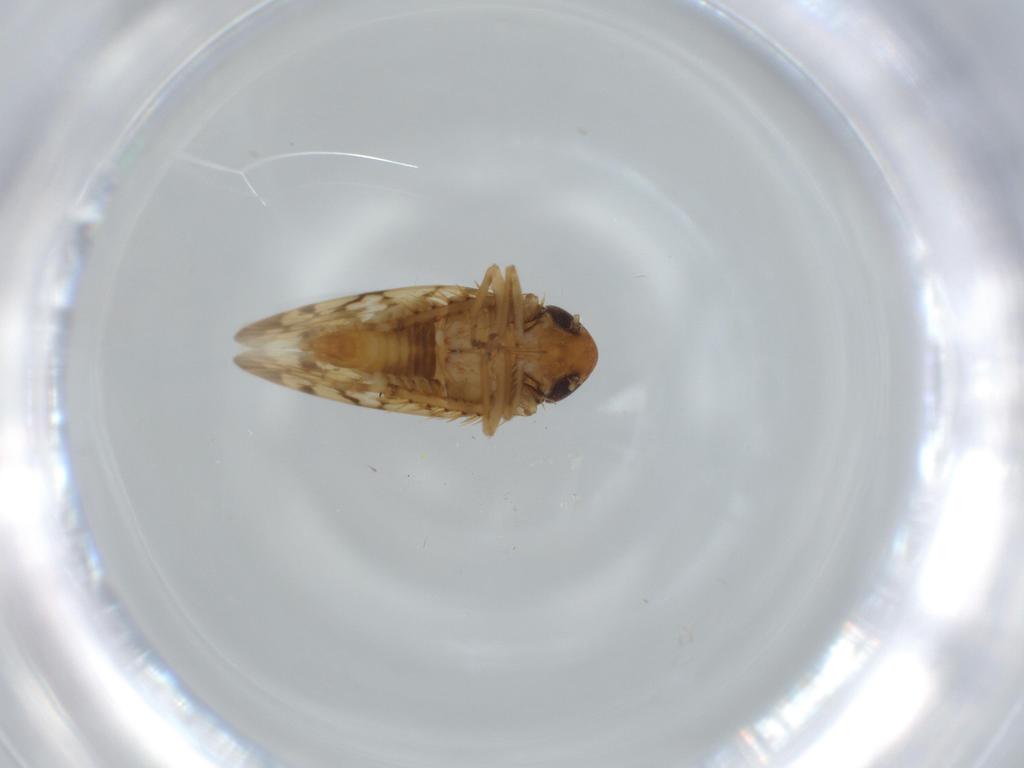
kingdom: Animalia
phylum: Arthropoda
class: Insecta
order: Hemiptera
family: Cicadellidae
